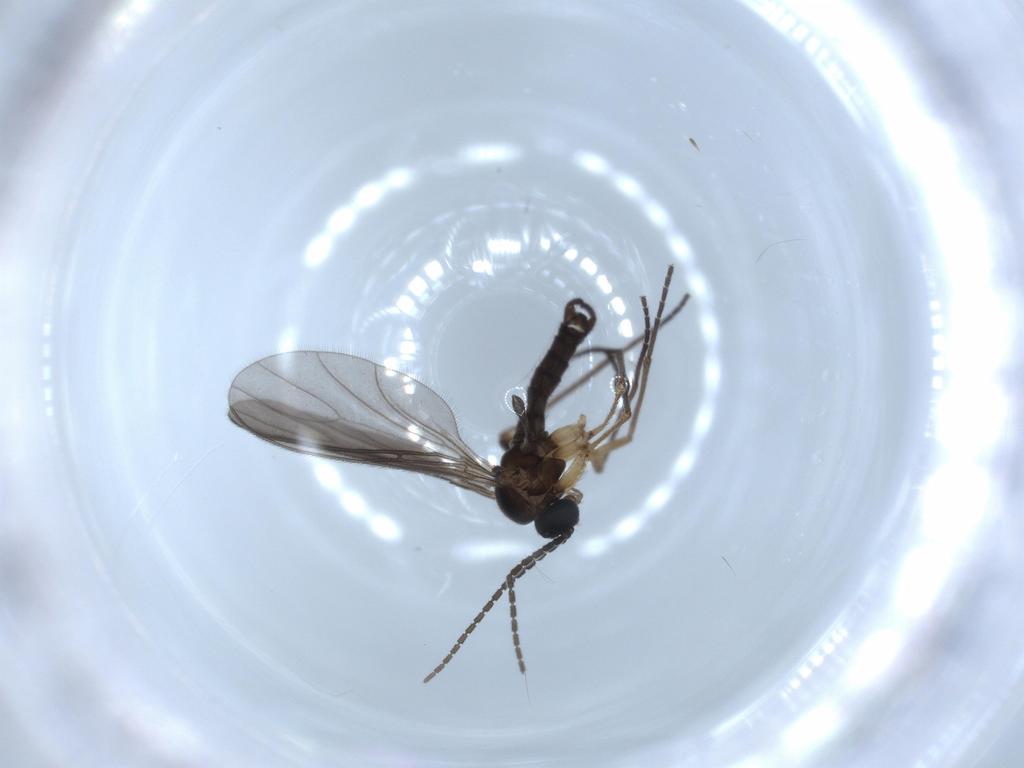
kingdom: Animalia
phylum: Arthropoda
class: Insecta
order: Diptera
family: Sciaridae
